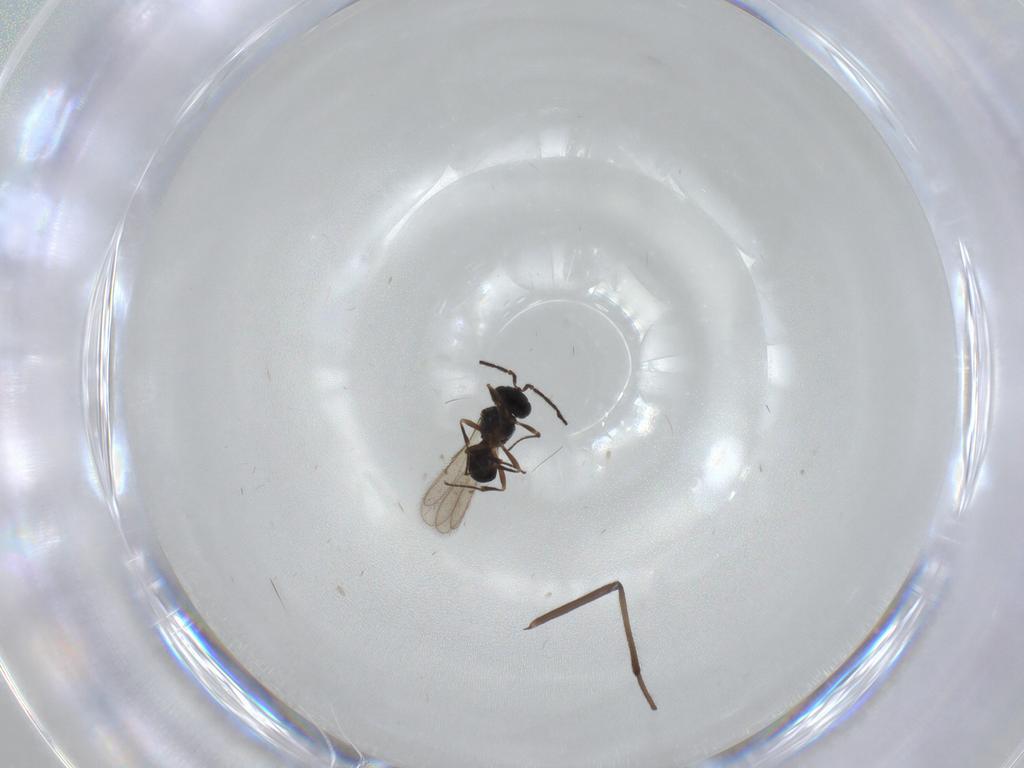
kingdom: Animalia
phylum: Arthropoda
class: Insecta
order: Hymenoptera
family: Scelionidae
